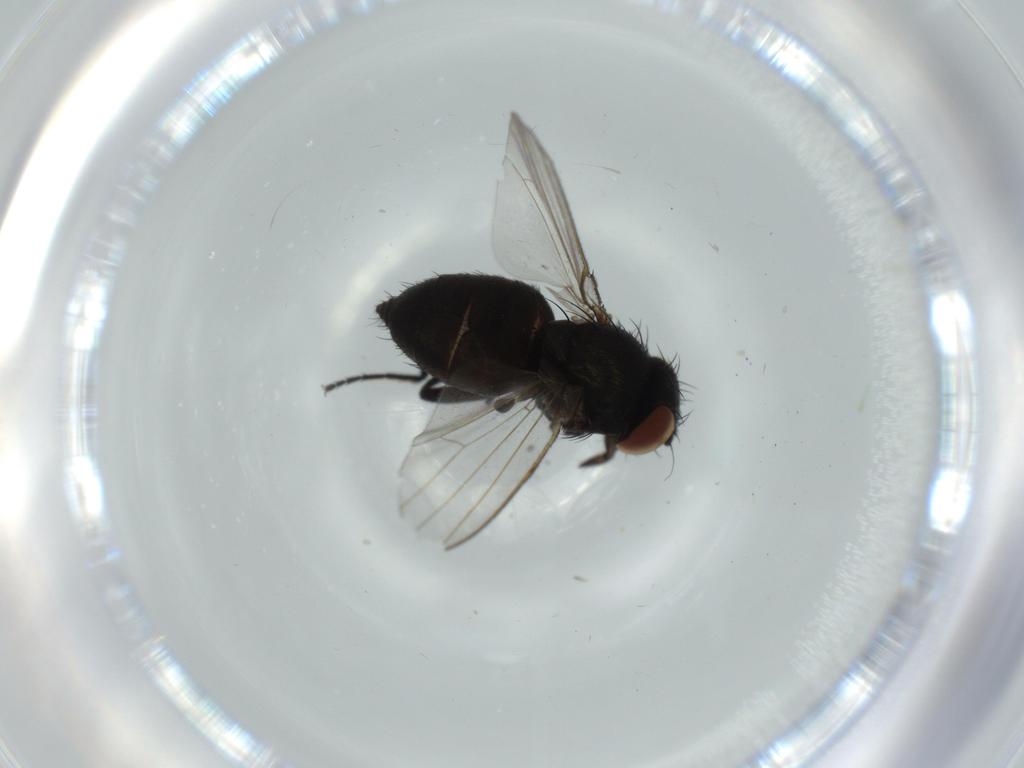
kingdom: Animalia
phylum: Arthropoda
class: Insecta
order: Diptera
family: Milichiidae
